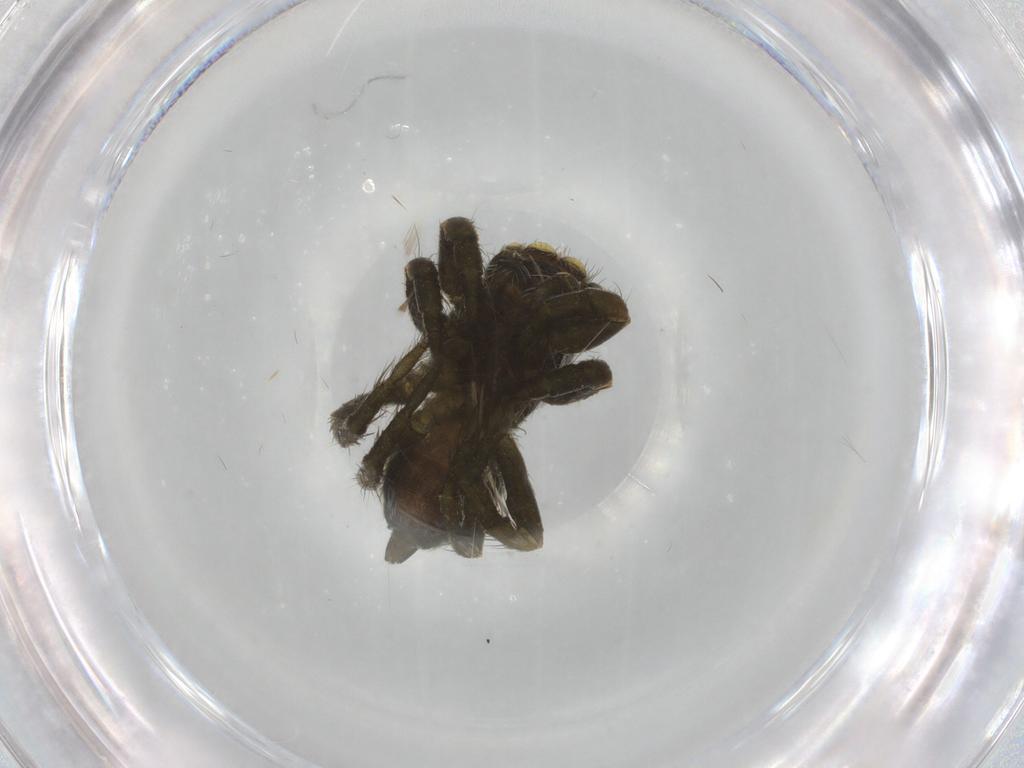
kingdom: Animalia
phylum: Arthropoda
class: Arachnida
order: Araneae
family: Salticidae
